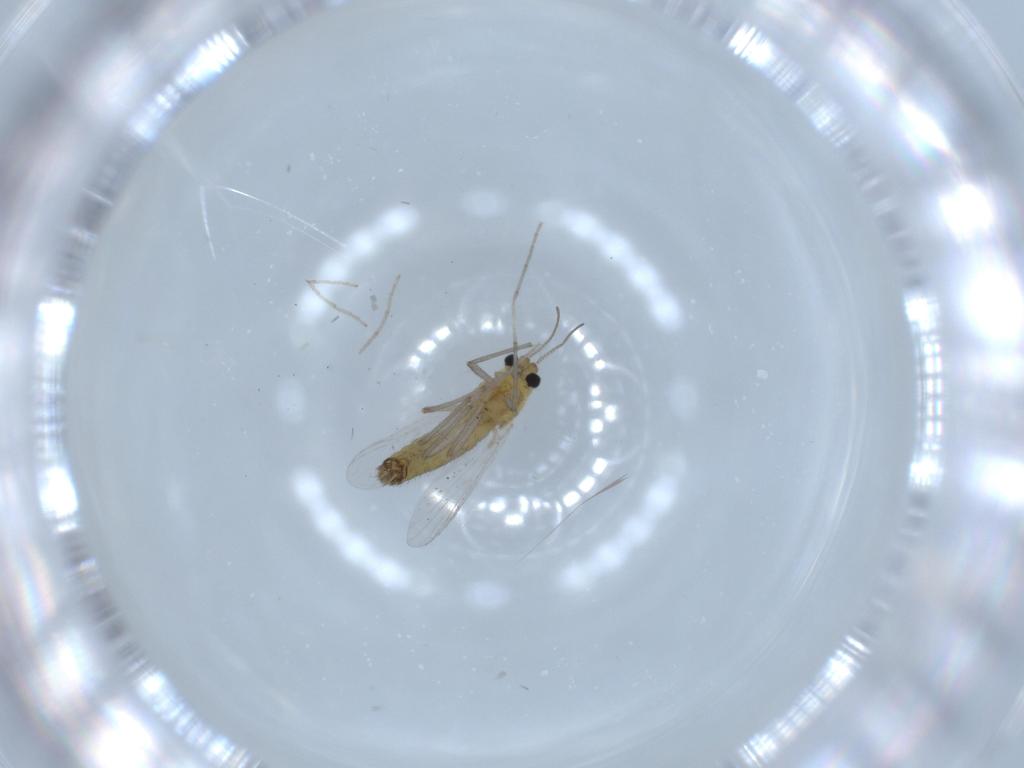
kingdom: Animalia
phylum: Arthropoda
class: Insecta
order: Diptera
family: Chironomidae
